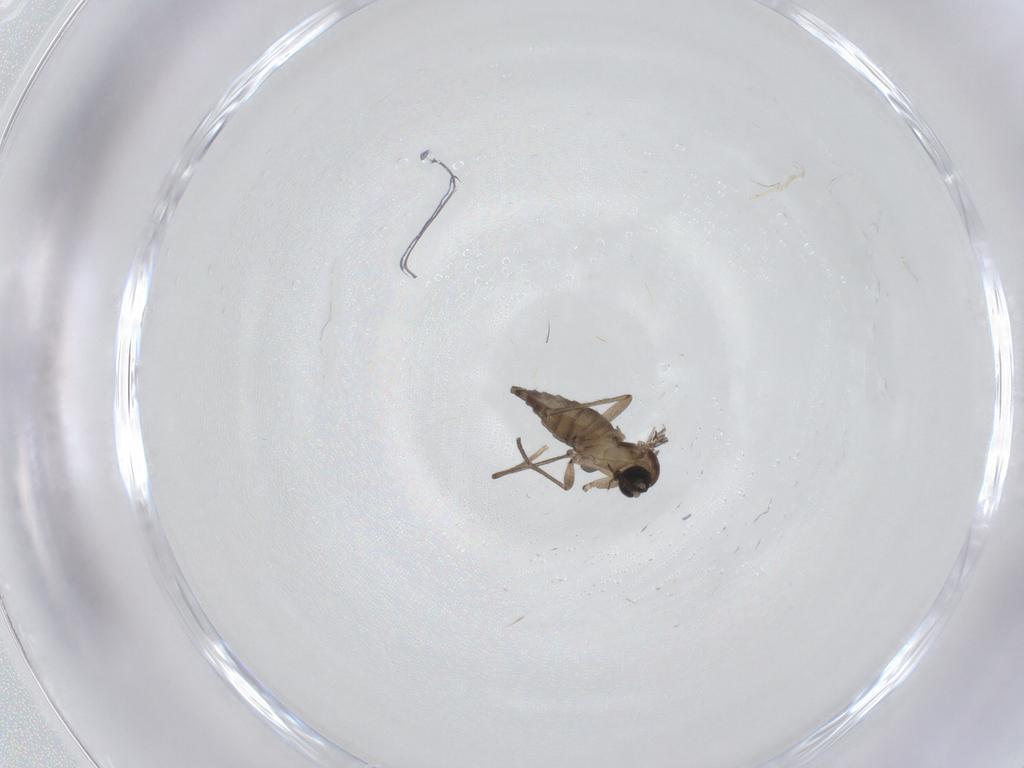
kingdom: Animalia
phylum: Arthropoda
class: Insecta
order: Diptera
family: Sciaridae
